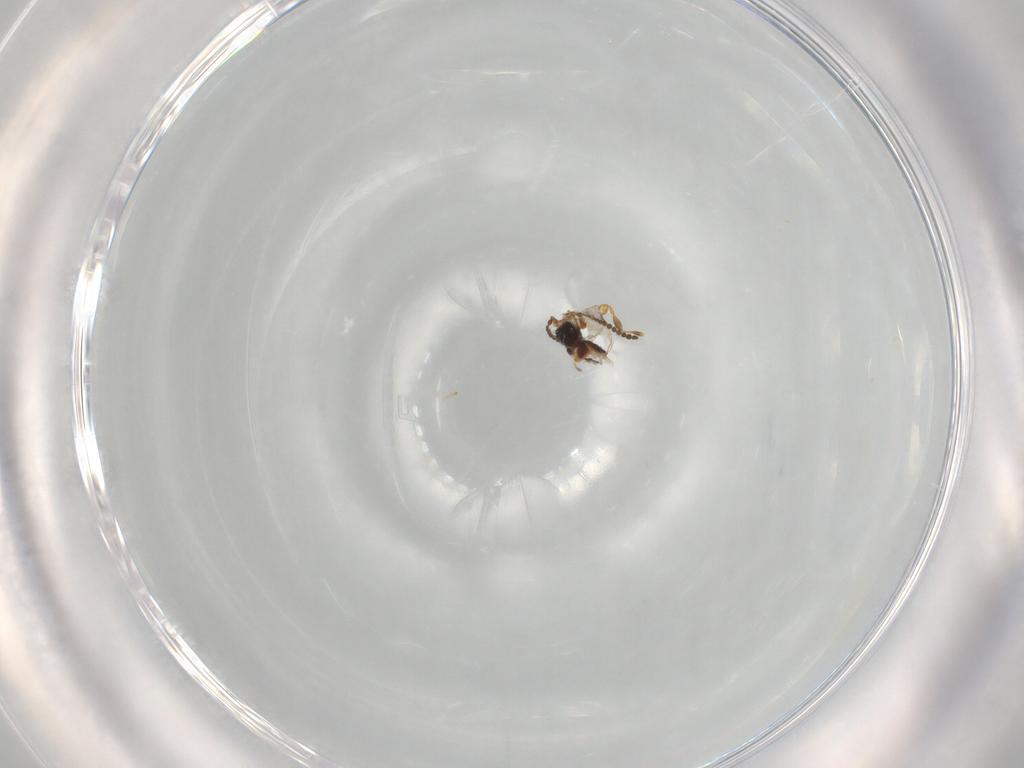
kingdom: Animalia
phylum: Arthropoda
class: Insecta
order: Hymenoptera
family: Diapriidae
